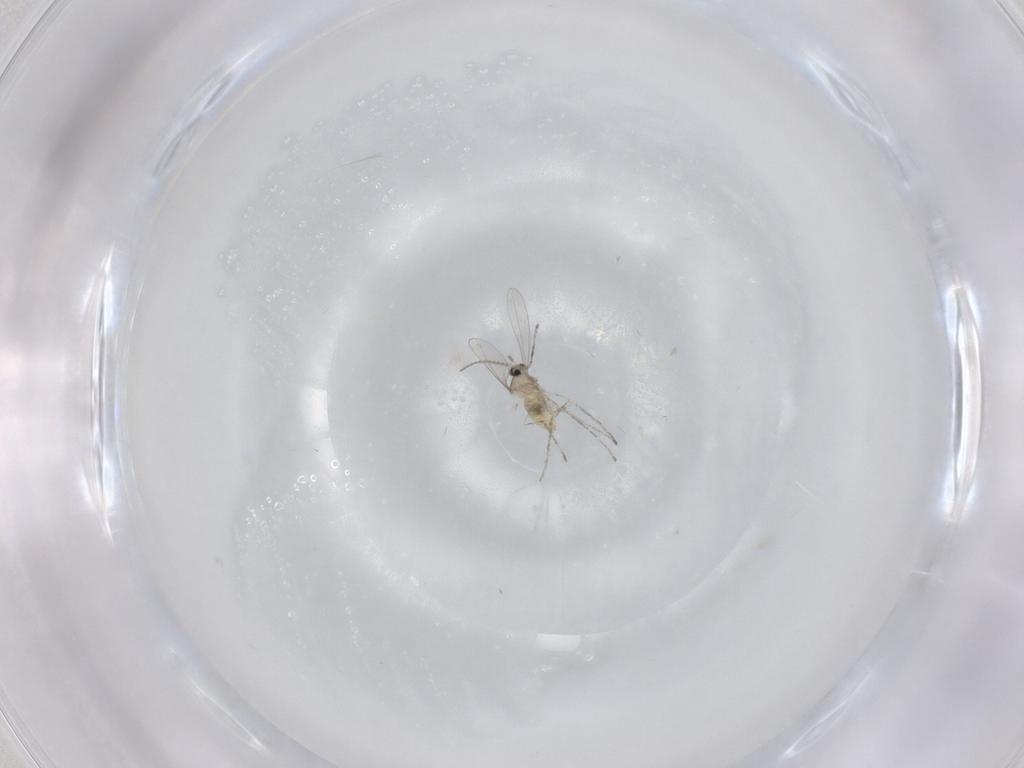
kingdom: Animalia
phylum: Arthropoda
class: Insecta
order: Diptera
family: Cecidomyiidae
